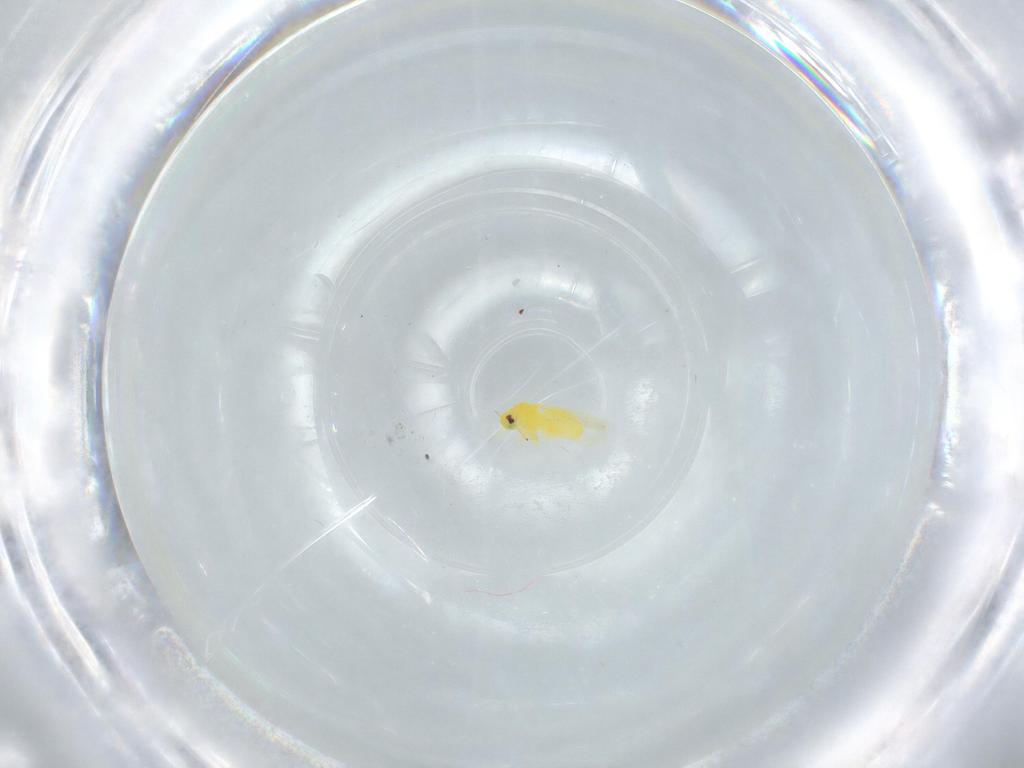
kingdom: Animalia
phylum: Arthropoda
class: Insecta
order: Hemiptera
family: Aleyrodidae
